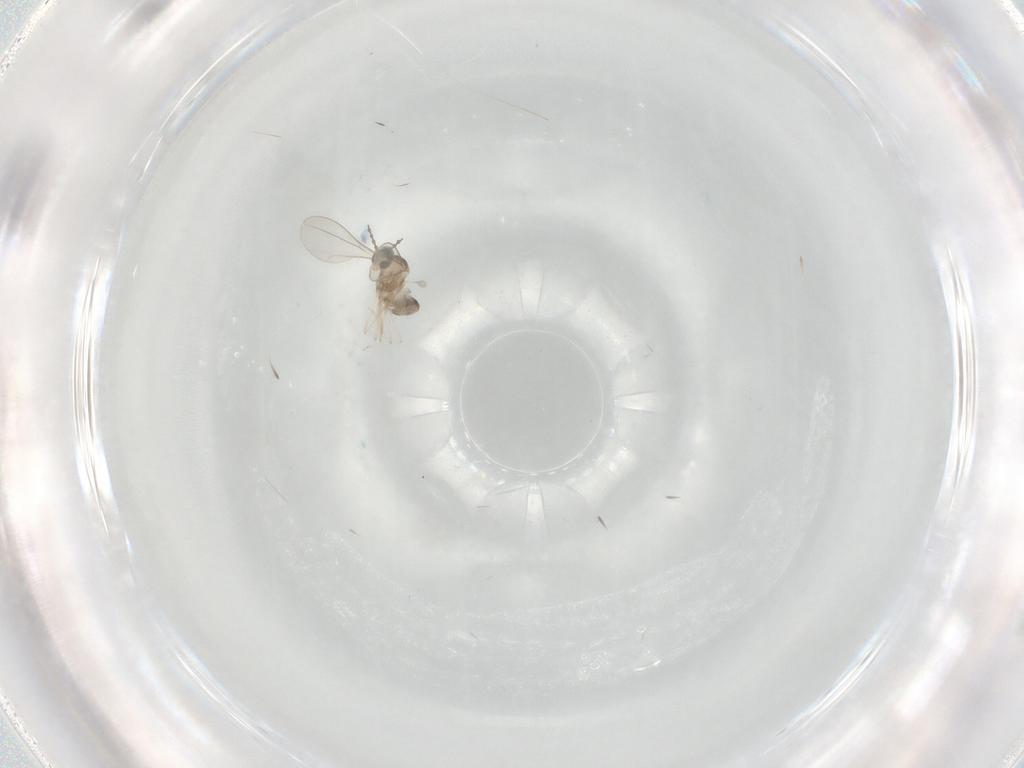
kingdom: Animalia
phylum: Arthropoda
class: Insecta
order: Diptera
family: Cecidomyiidae
